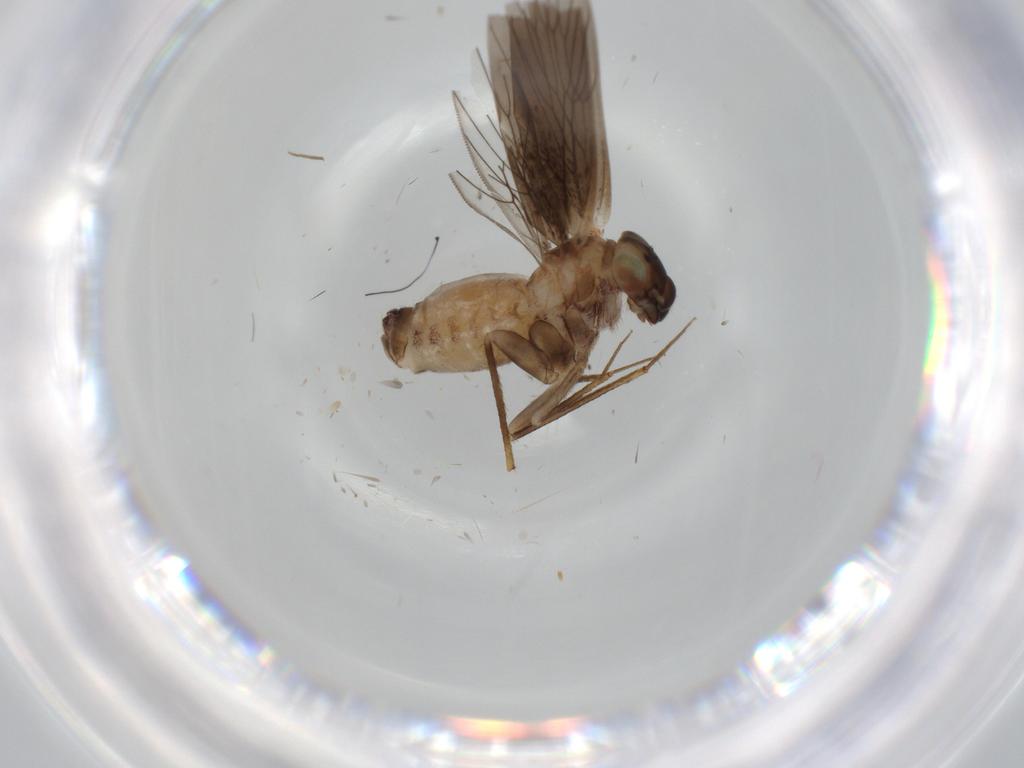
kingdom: Animalia
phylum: Arthropoda
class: Insecta
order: Psocodea
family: Lepidopsocidae
